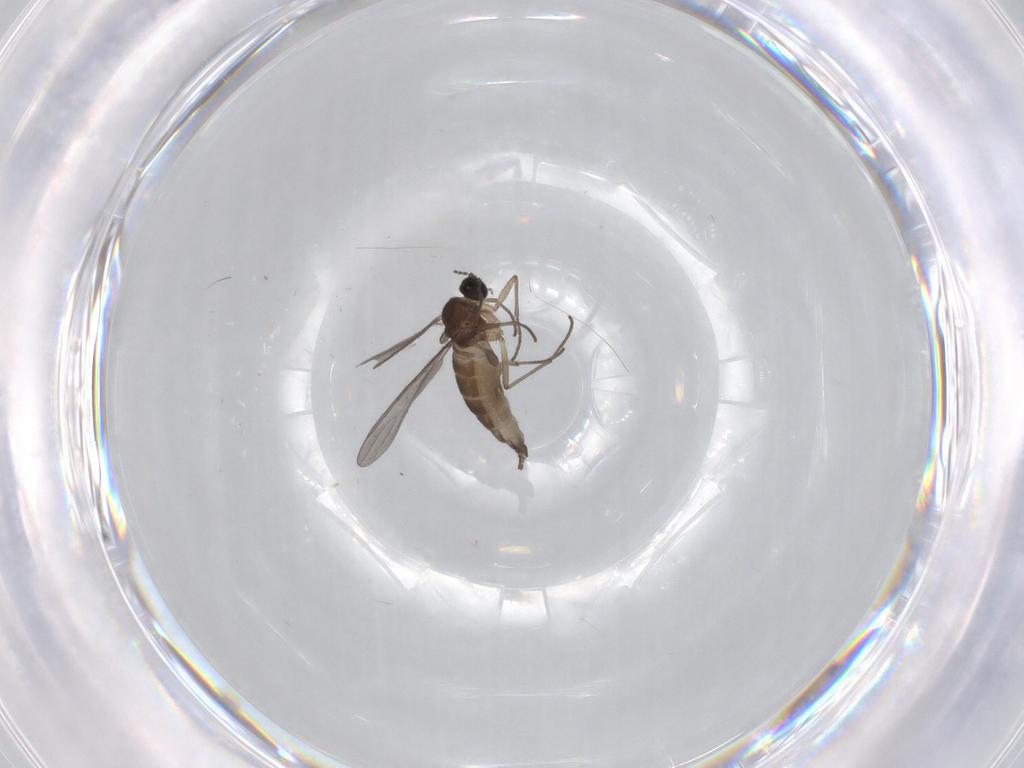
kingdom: Animalia
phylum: Arthropoda
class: Insecta
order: Diptera
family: Sciaridae
